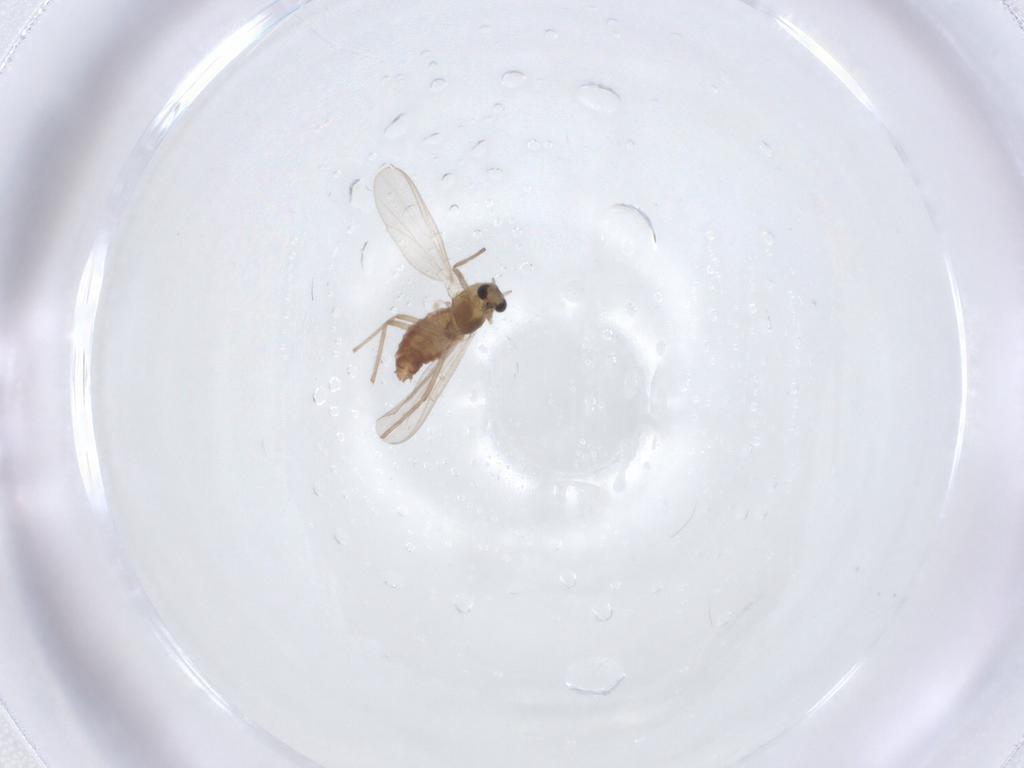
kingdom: Animalia
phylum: Arthropoda
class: Insecta
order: Diptera
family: Chironomidae
